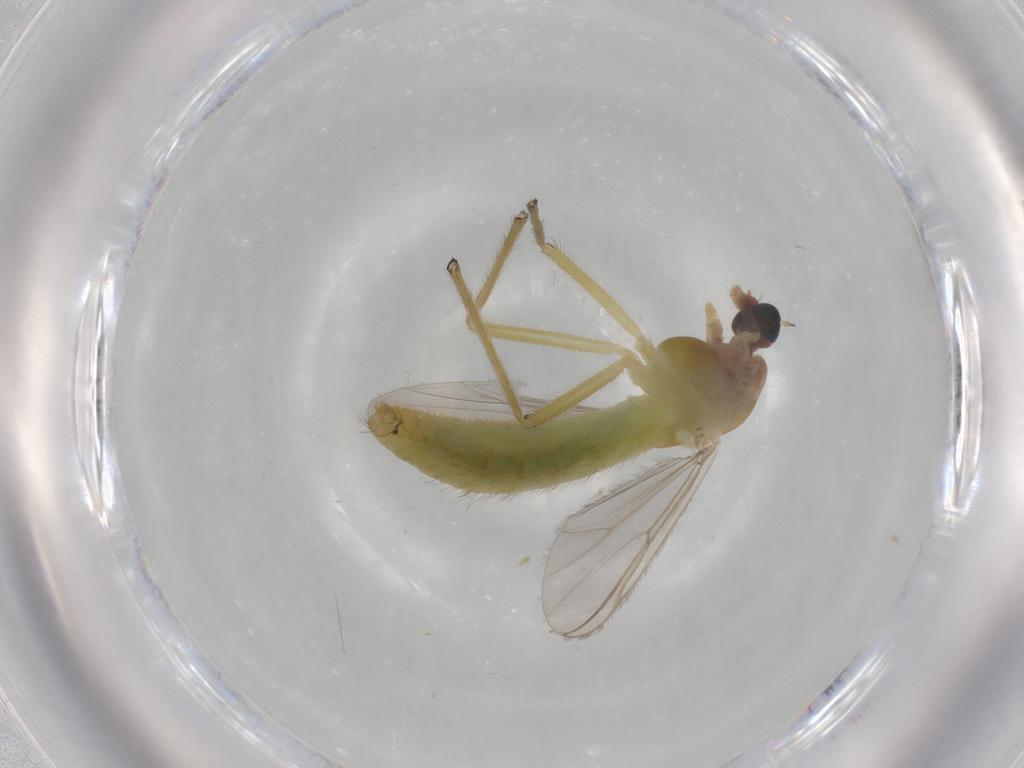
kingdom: Animalia
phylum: Arthropoda
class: Insecta
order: Diptera
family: Chironomidae
